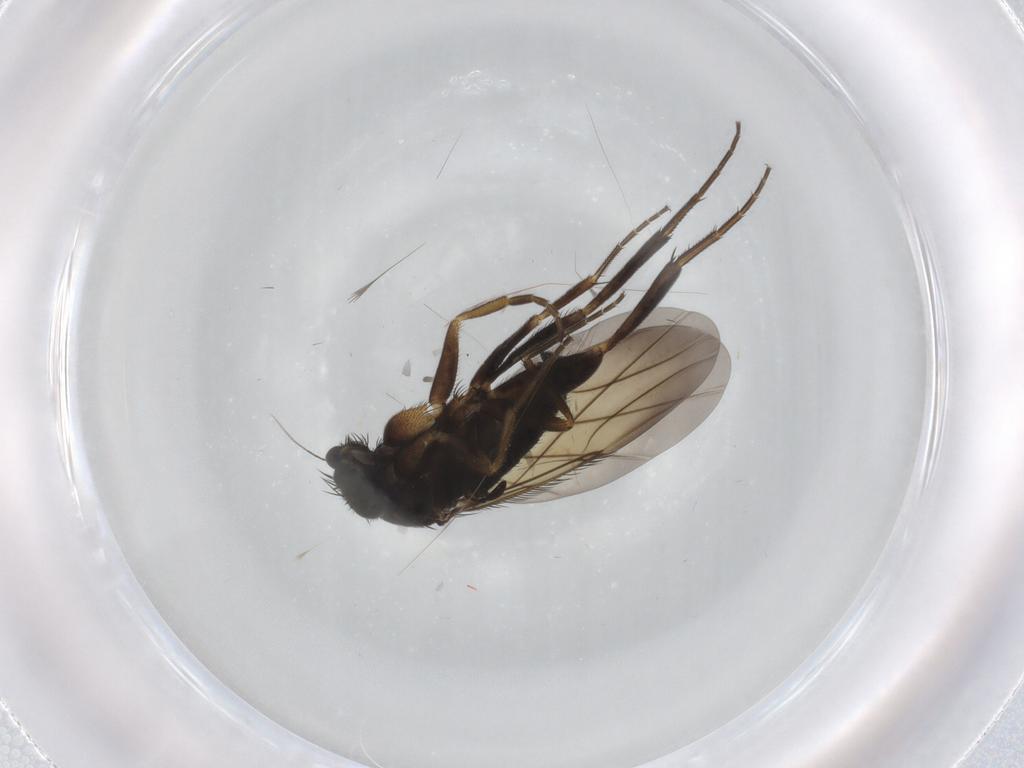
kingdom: Animalia
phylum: Arthropoda
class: Insecta
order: Diptera
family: Phoridae
